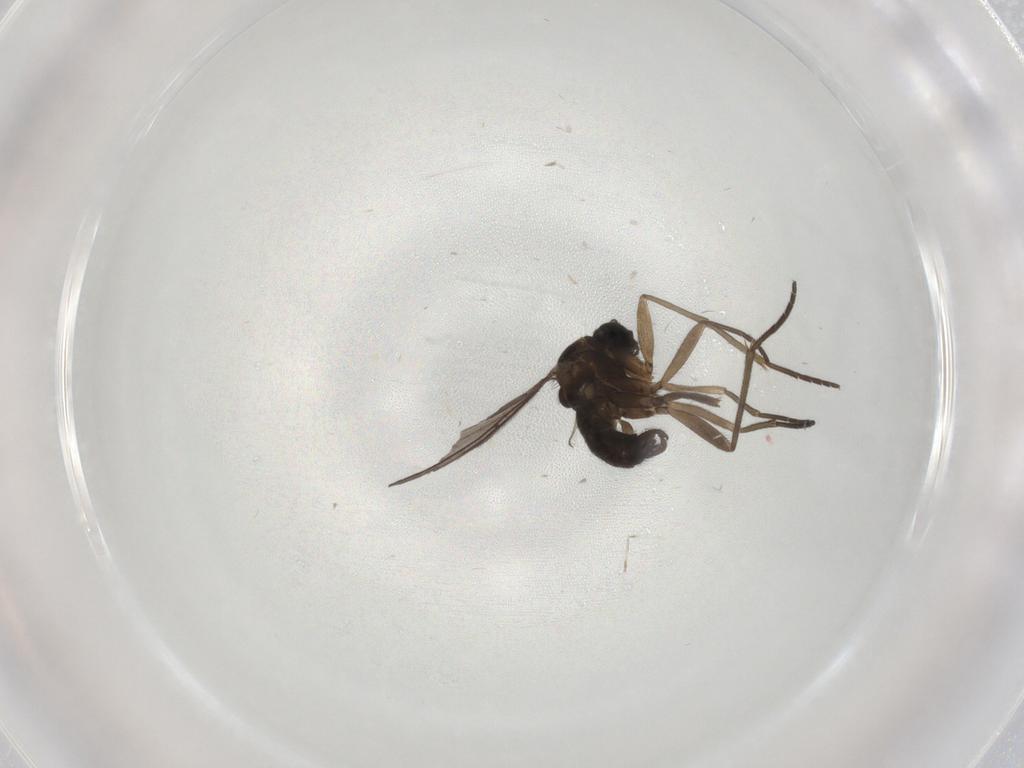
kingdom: Animalia
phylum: Arthropoda
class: Insecta
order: Diptera
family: Sciaridae
